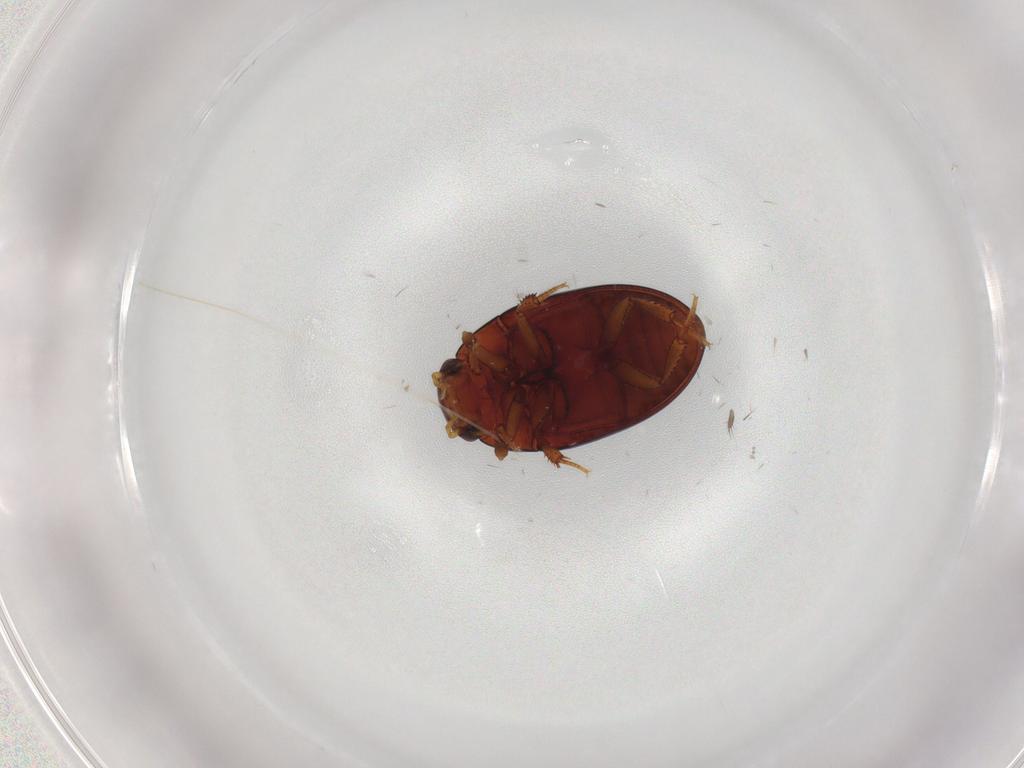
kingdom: Animalia
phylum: Arthropoda
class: Insecta
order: Coleoptera
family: Hydrophilidae
